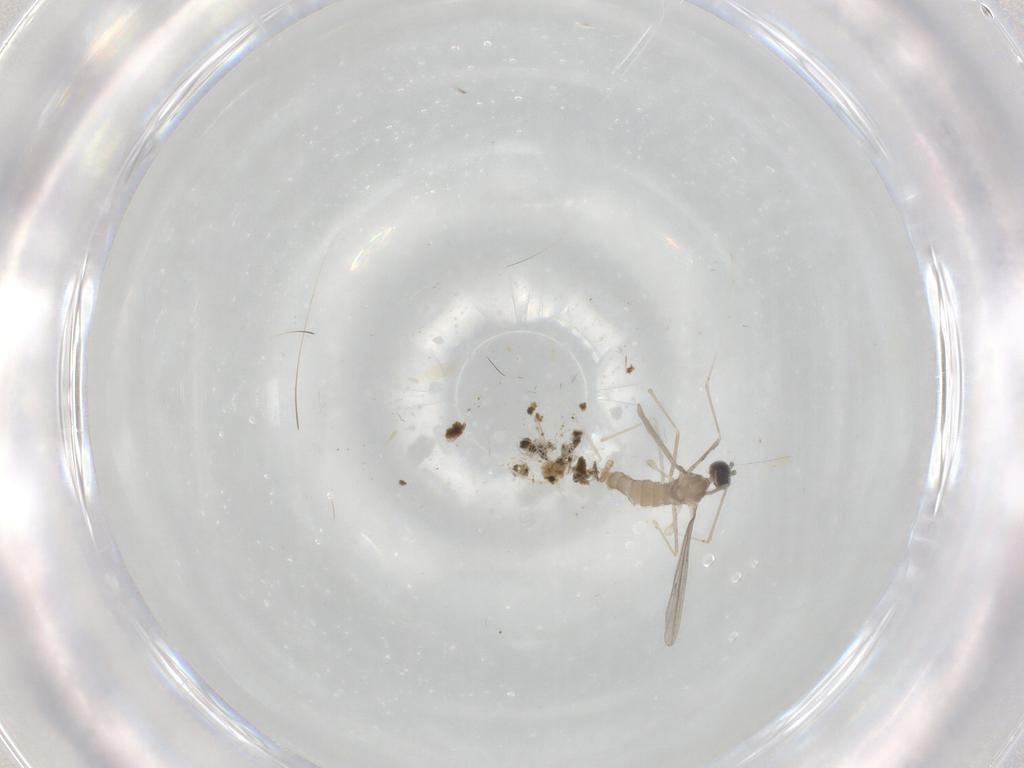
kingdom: Animalia
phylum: Arthropoda
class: Insecta
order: Diptera
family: Cecidomyiidae
